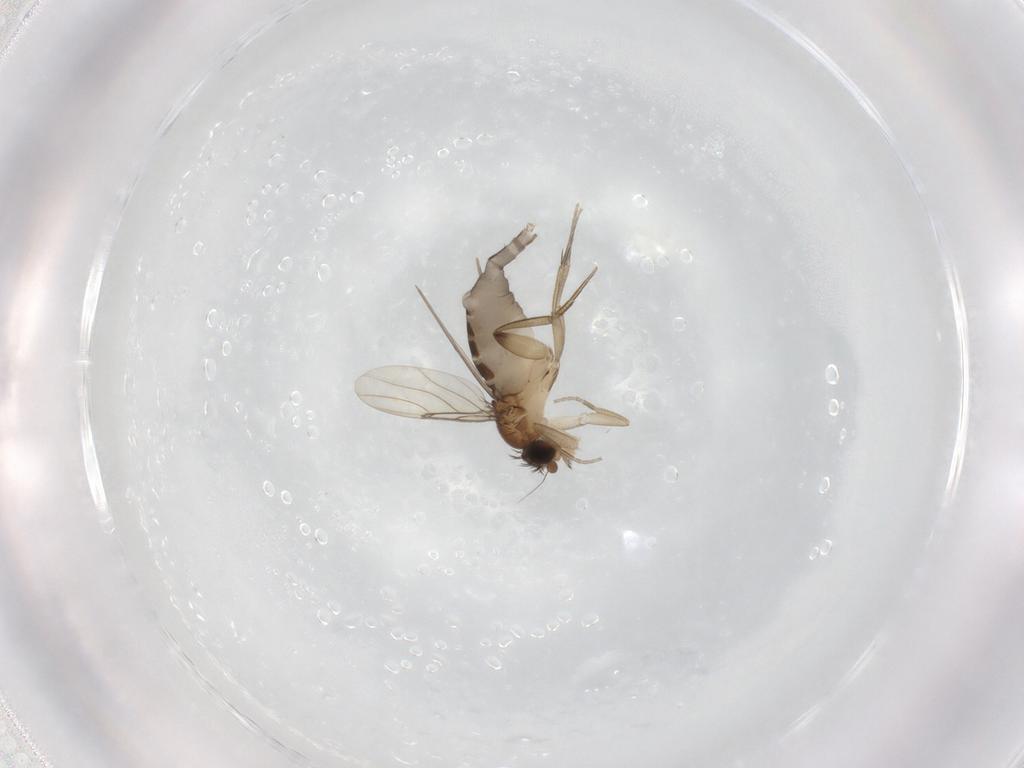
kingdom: Animalia
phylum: Arthropoda
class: Insecta
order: Diptera
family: Phoridae
